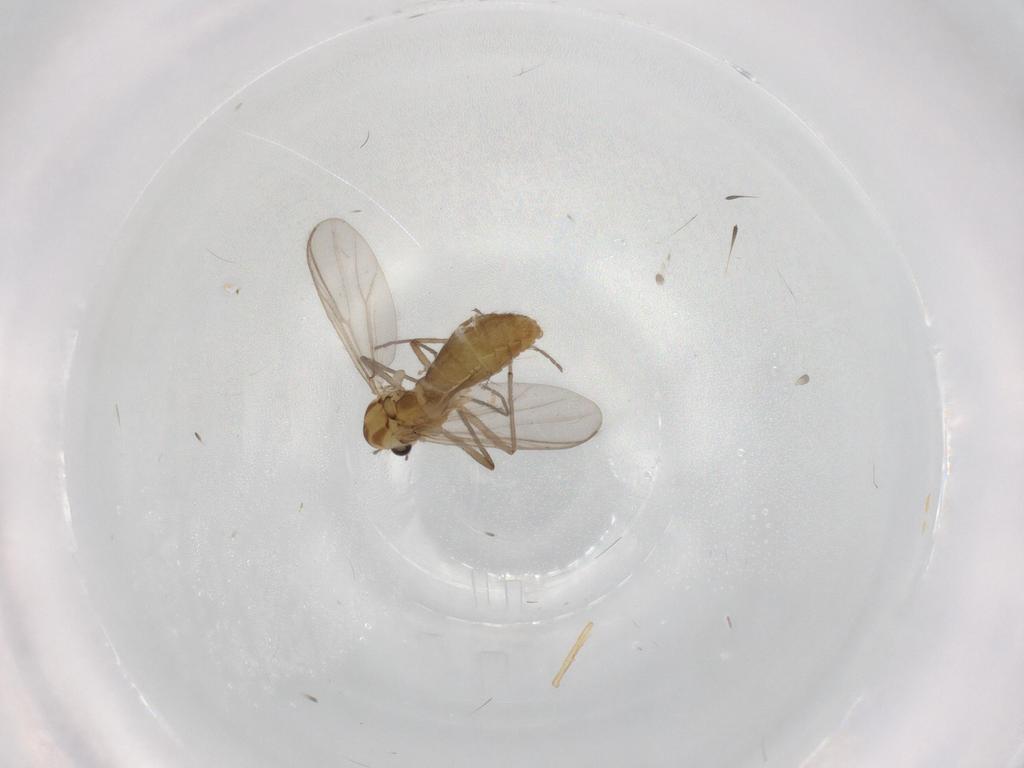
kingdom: Animalia
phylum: Arthropoda
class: Insecta
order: Diptera
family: Chironomidae
